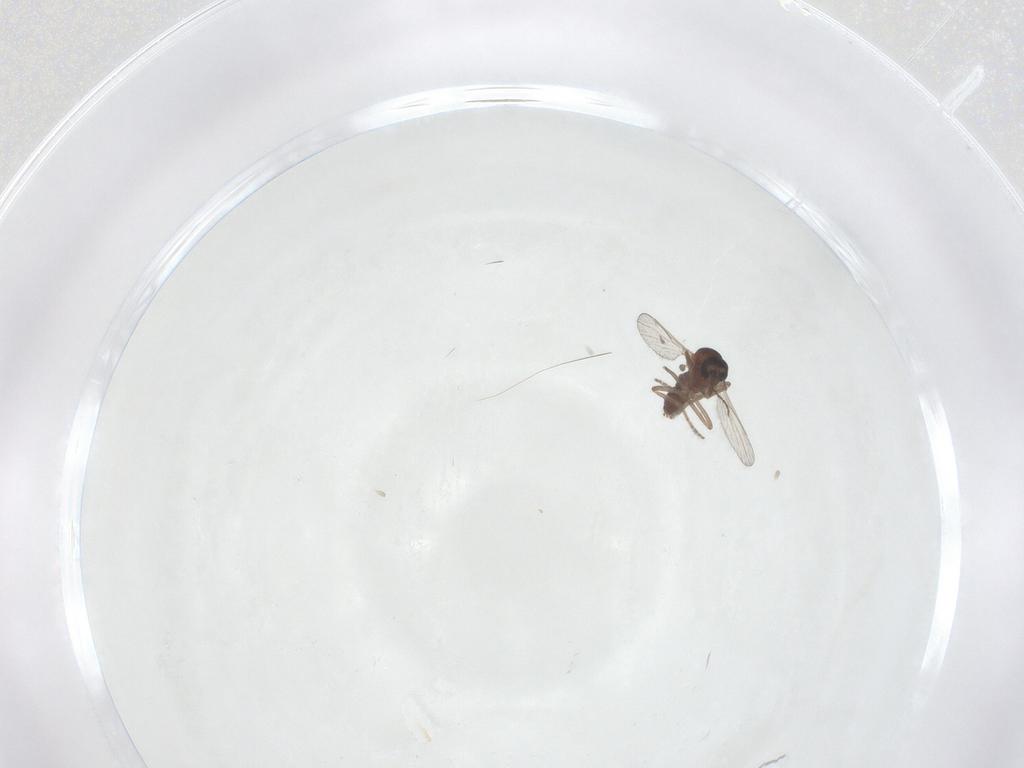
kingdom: Animalia
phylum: Arthropoda
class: Insecta
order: Diptera
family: Ceratopogonidae
